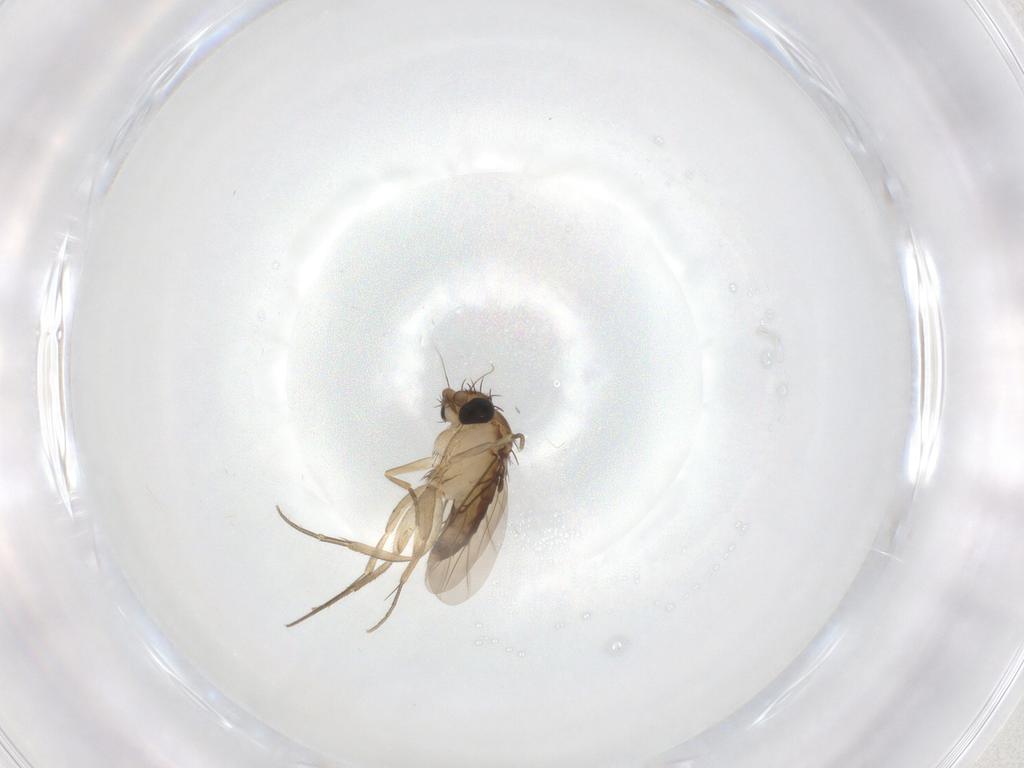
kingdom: Animalia
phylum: Arthropoda
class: Insecta
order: Diptera
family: Phoridae
